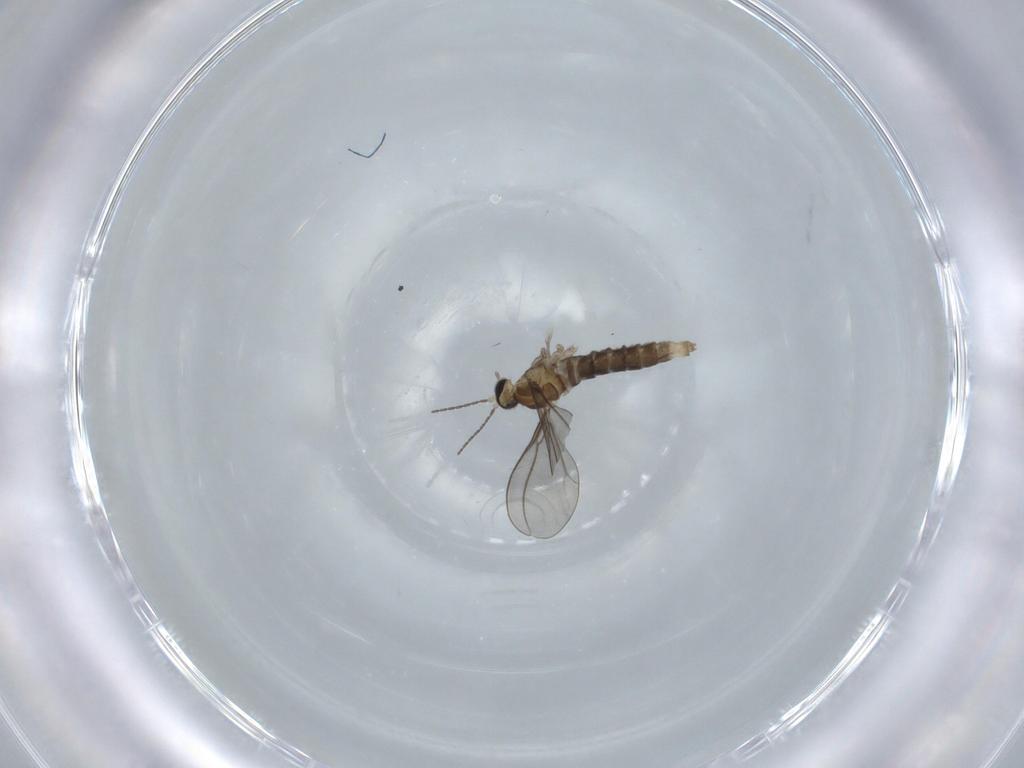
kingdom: Animalia
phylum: Arthropoda
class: Insecta
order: Diptera
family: Cecidomyiidae
